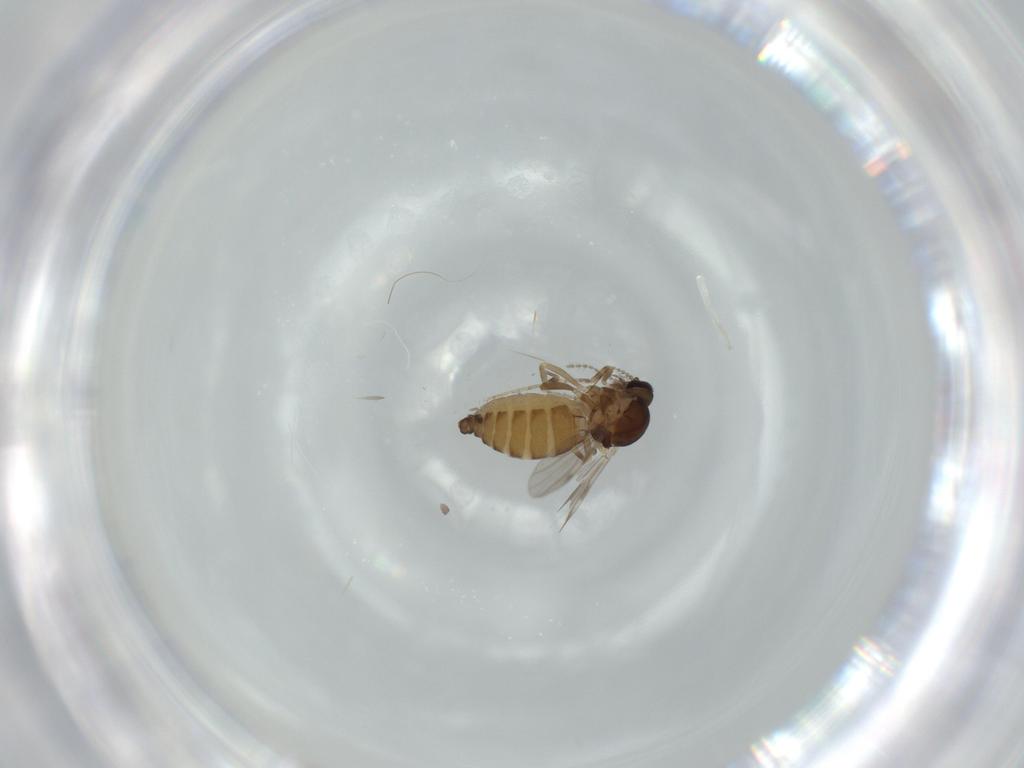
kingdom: Animalia
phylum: Arthropoda
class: Insecta
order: Diptera
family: Ceratopogonidae
